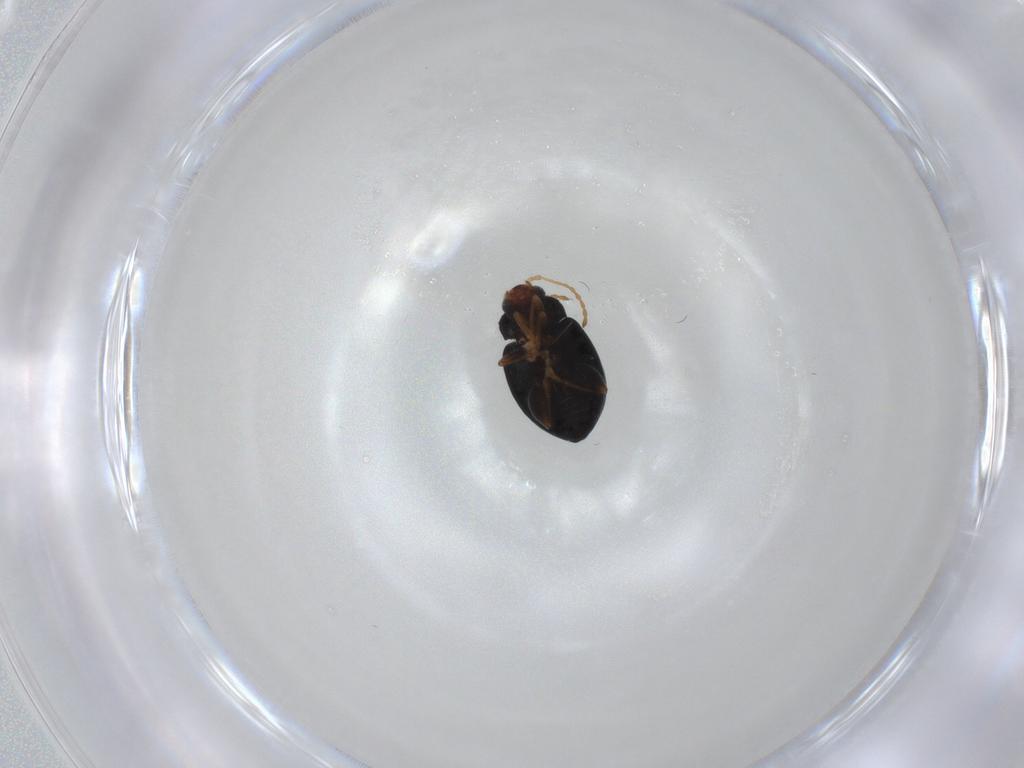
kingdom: Animalia
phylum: Arthropoda
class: Insecta
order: Coleoptera
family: Chrysomelidae
